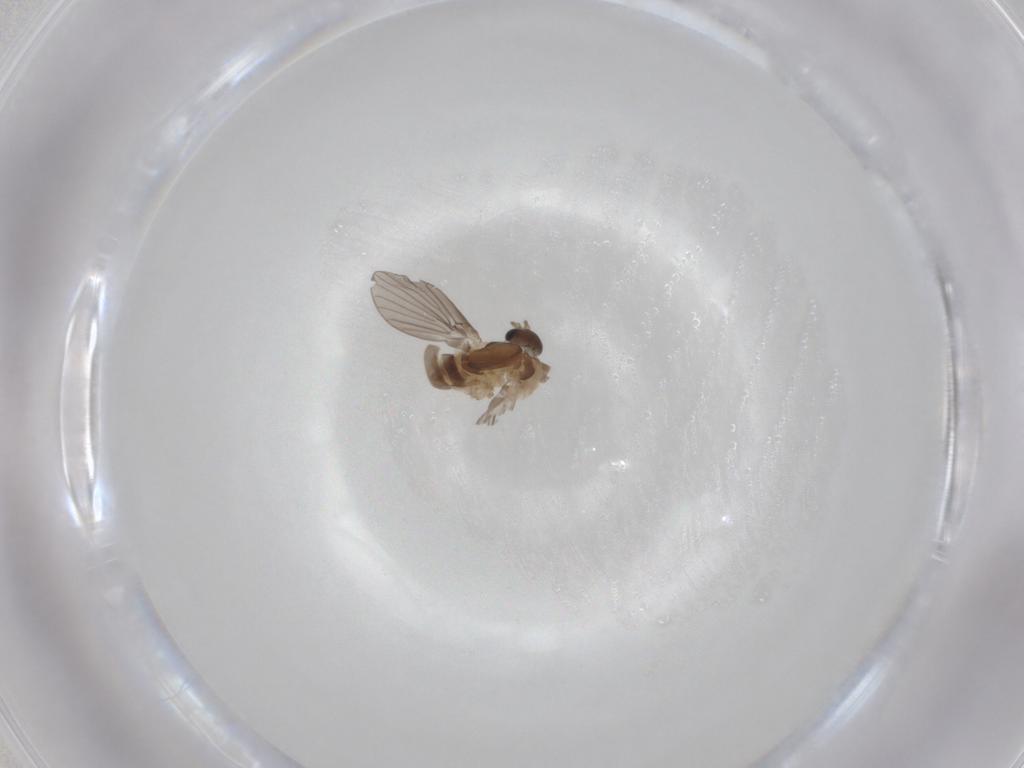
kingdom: Animalia
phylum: Arthropoda
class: Insecta
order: Diptera
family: Psychodidae
